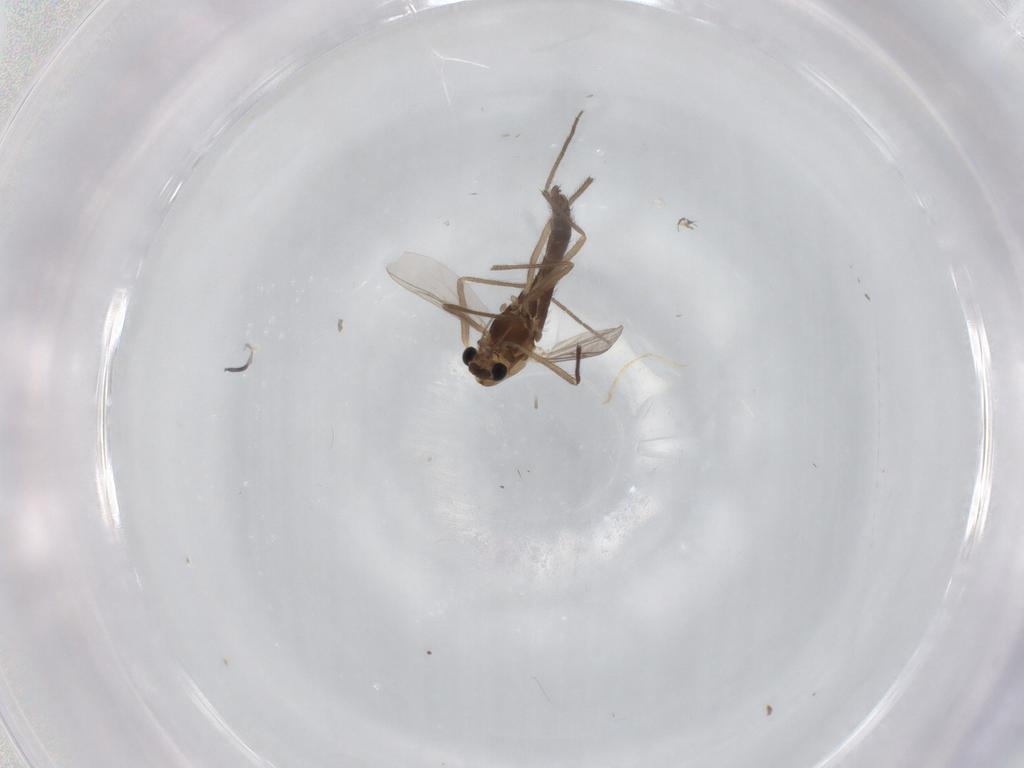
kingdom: Animalia
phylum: Arthropoda
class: Insecta
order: Diptera
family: Chironomidae
